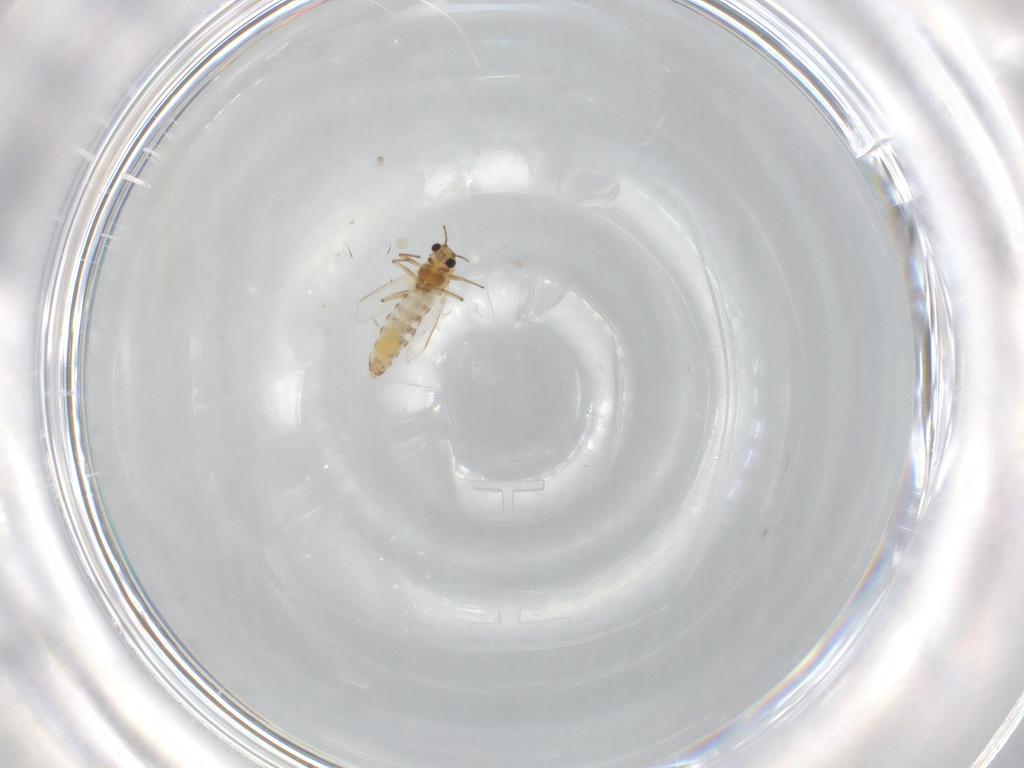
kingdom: Animalia
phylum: Arthropoda
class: Insecta
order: Diptera
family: Chironomidae
